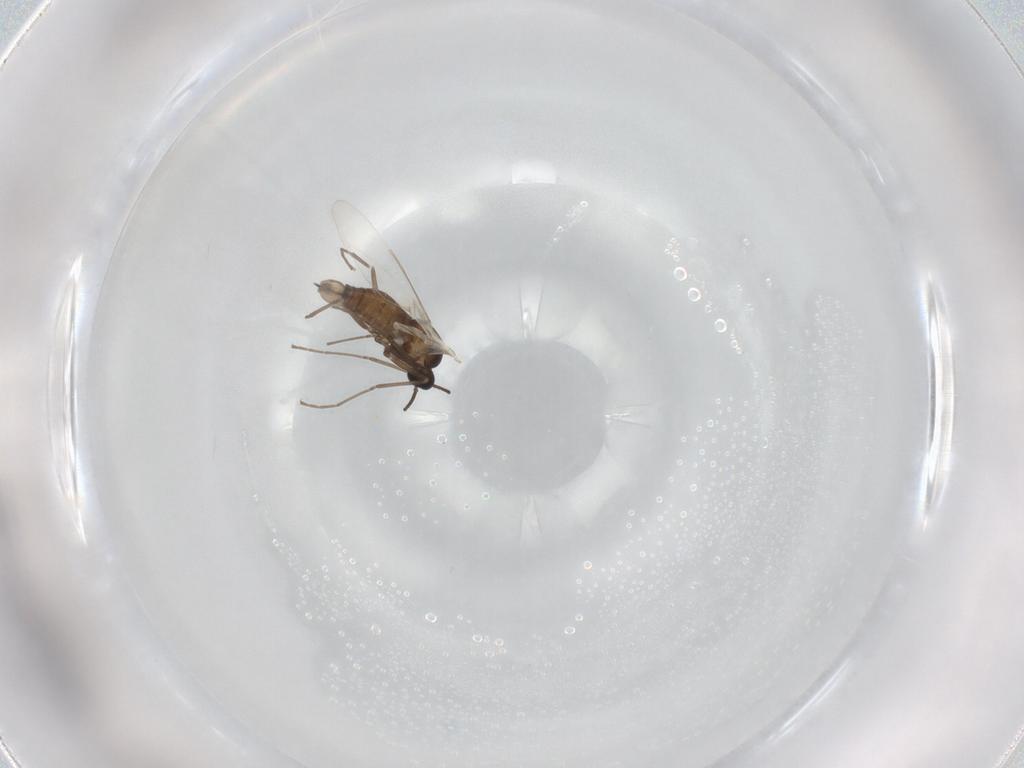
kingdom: Animalia
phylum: Arthropoda
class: Insecta
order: Diptera
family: Cecidomyiidae
